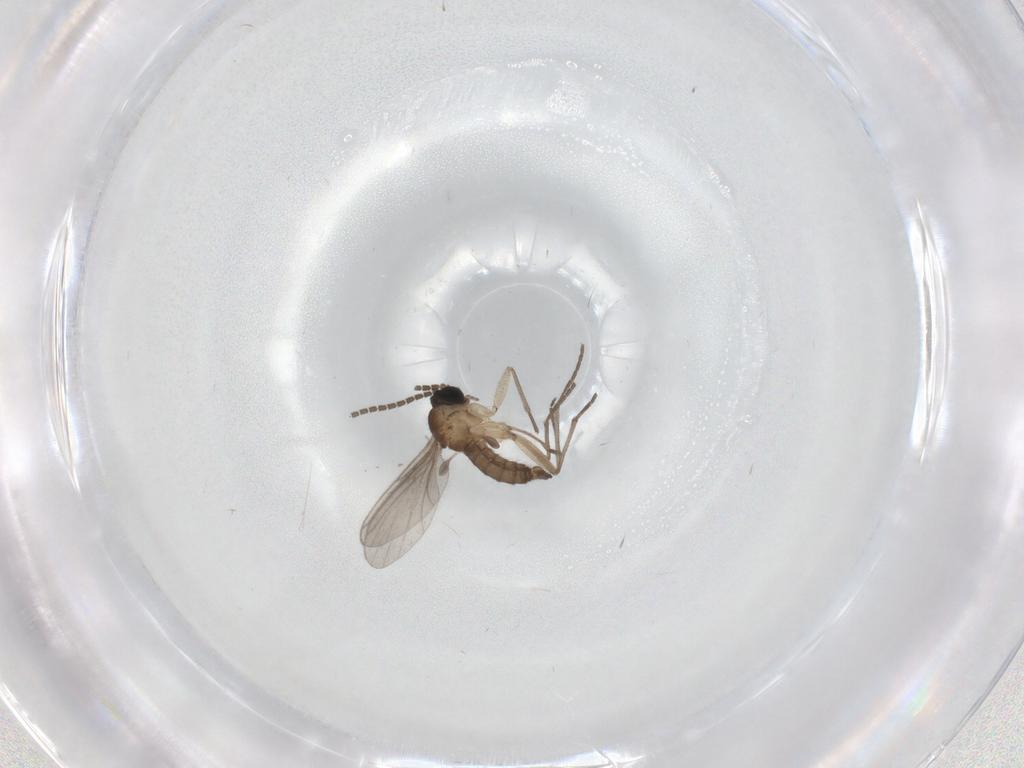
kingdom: Animalia
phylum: Arthropoda
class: Insecta
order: Diptera
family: Sciaridae
